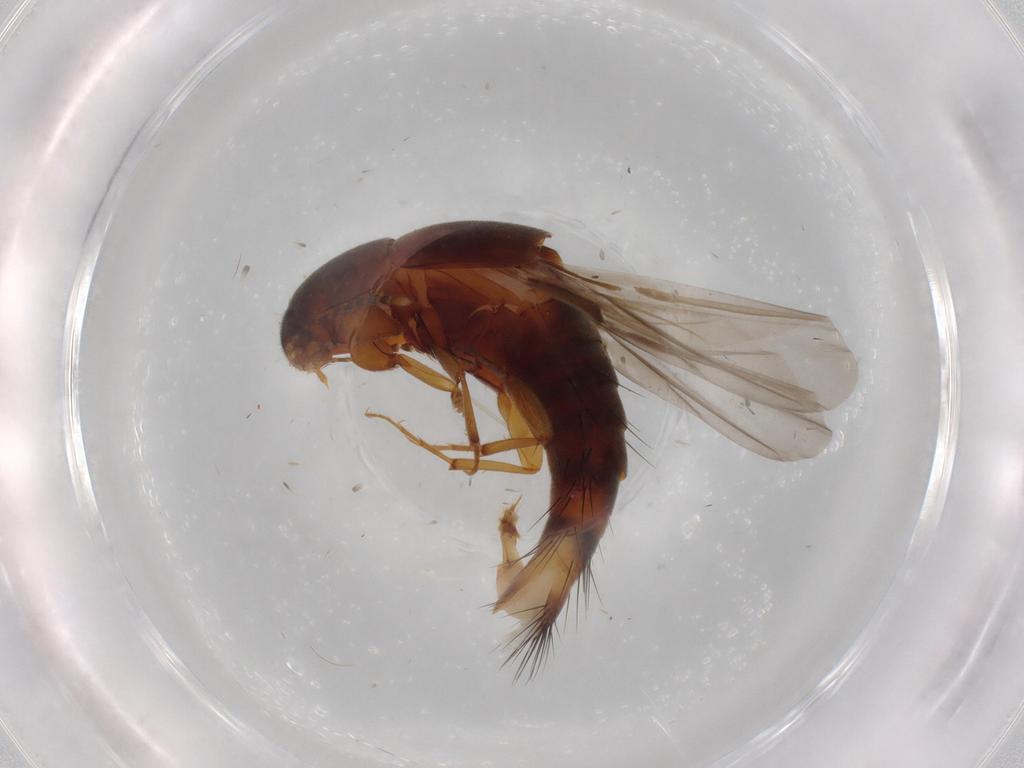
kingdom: Animalia
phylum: Arthropoda
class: Insecta
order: Coleoptera
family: Staphylinidae
